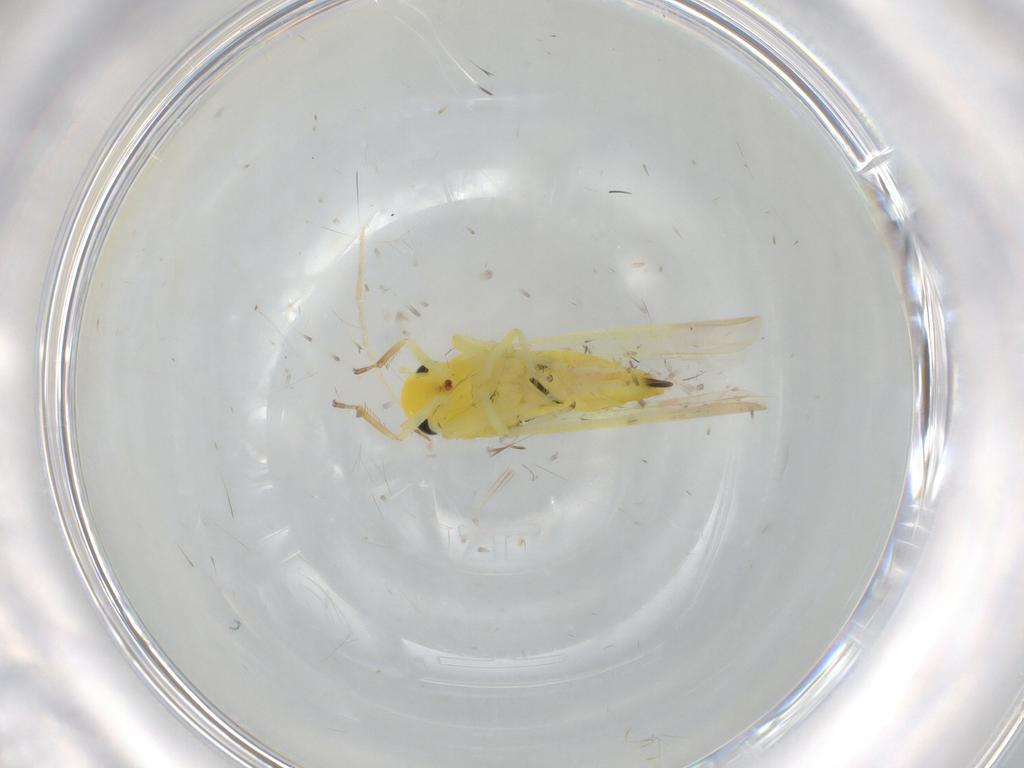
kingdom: Animalia
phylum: Arthropoda
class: Insecta
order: Hemiptera
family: Cicadellidae
